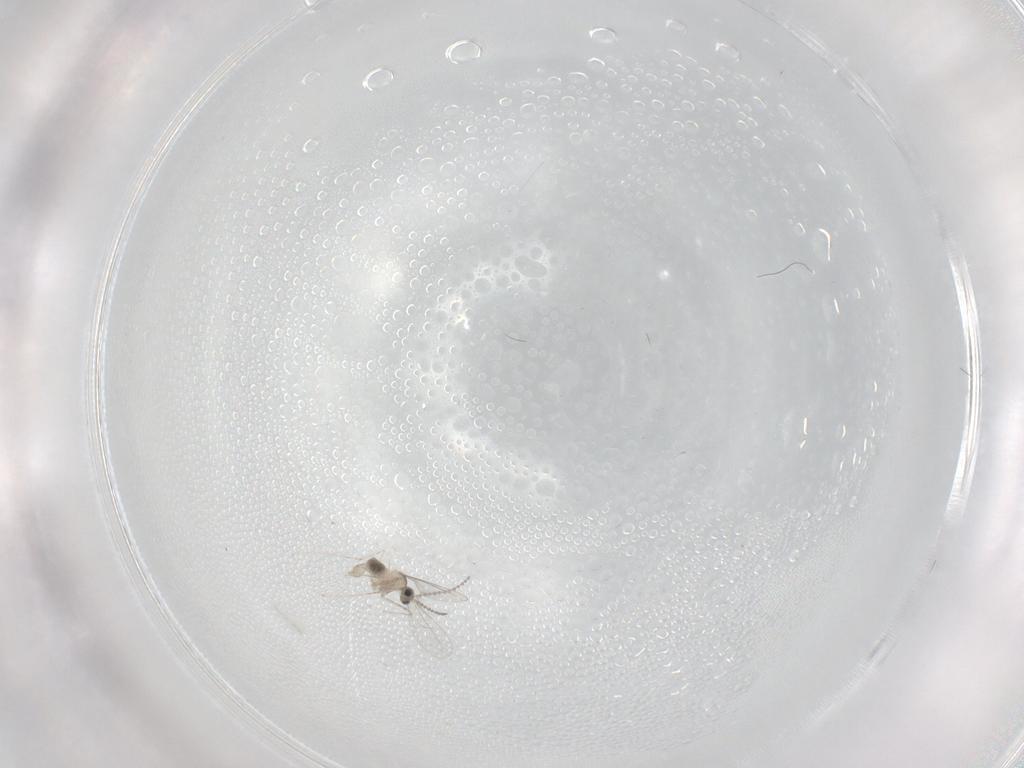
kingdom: Animalia
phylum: Arthropoda
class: Insecta
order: Diptera
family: Cecidomyiidae
